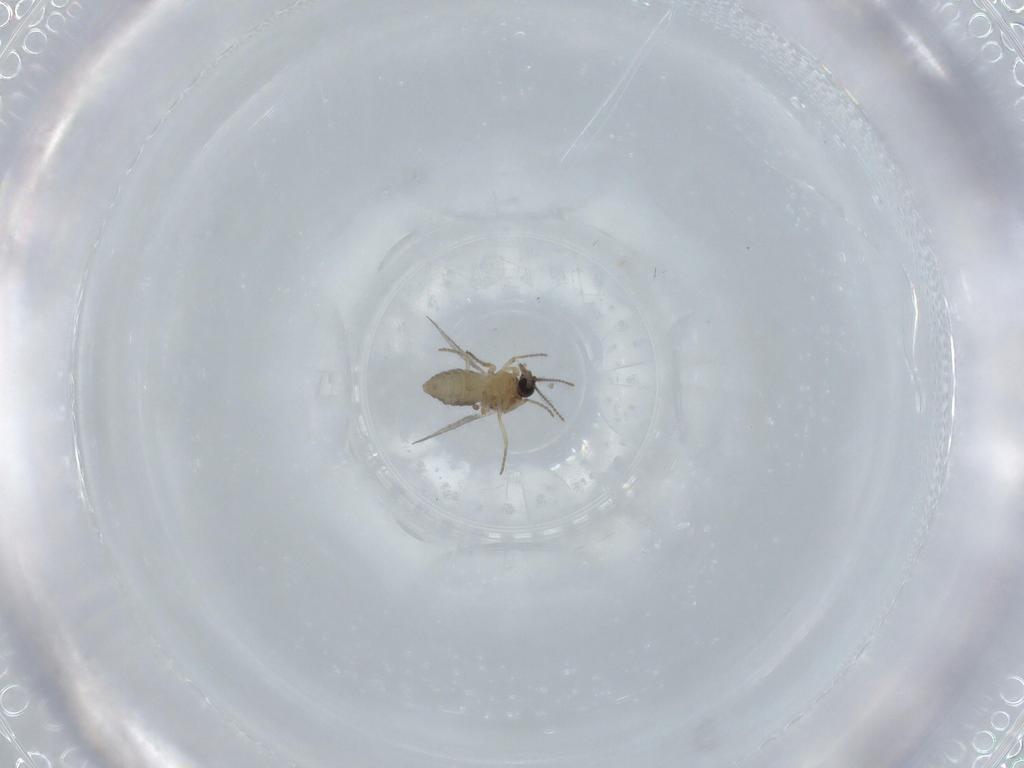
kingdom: Animalia
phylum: Arthropoda
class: Insecta
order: Diptera
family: Ceratopogonidae
